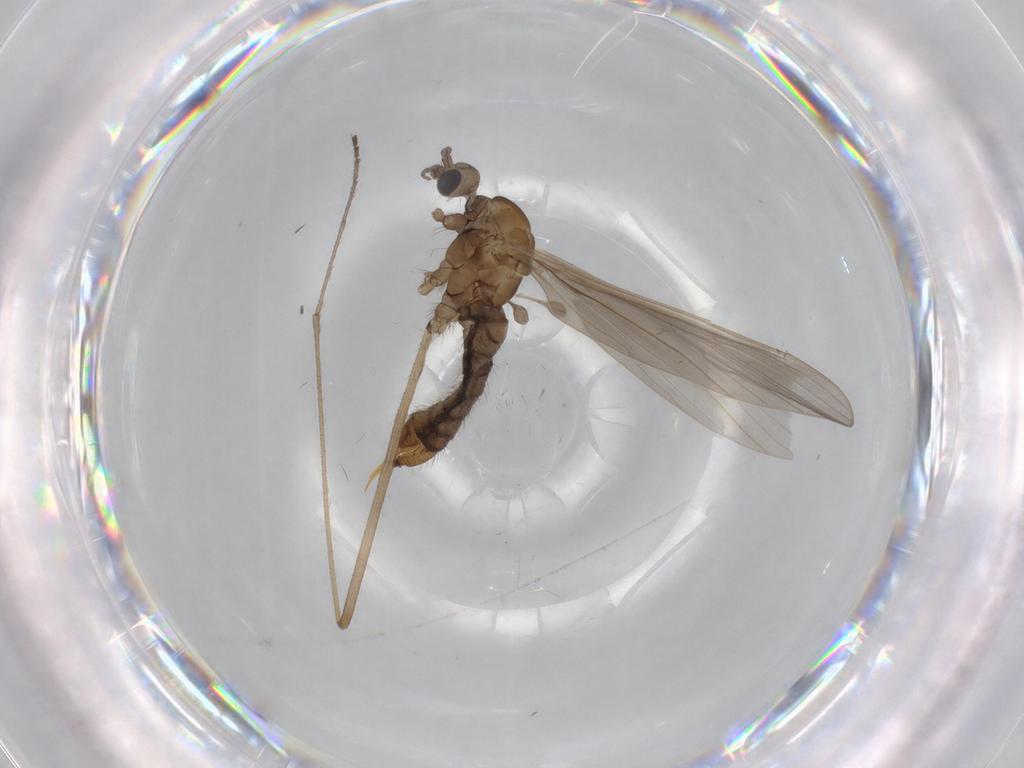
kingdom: Animalia
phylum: Arthropoda
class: Insecta
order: Diptera
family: Limoniidae
